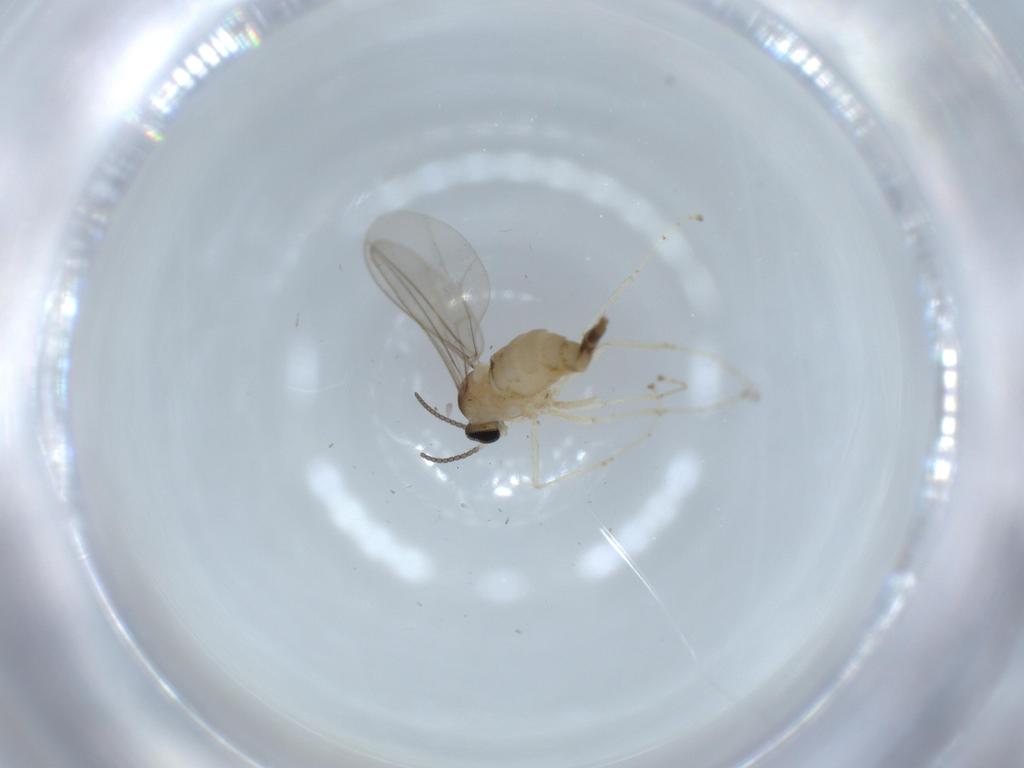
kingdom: Animalia
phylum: Arthropoda
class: Insecta
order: Diptera
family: Cecidomyiidae
